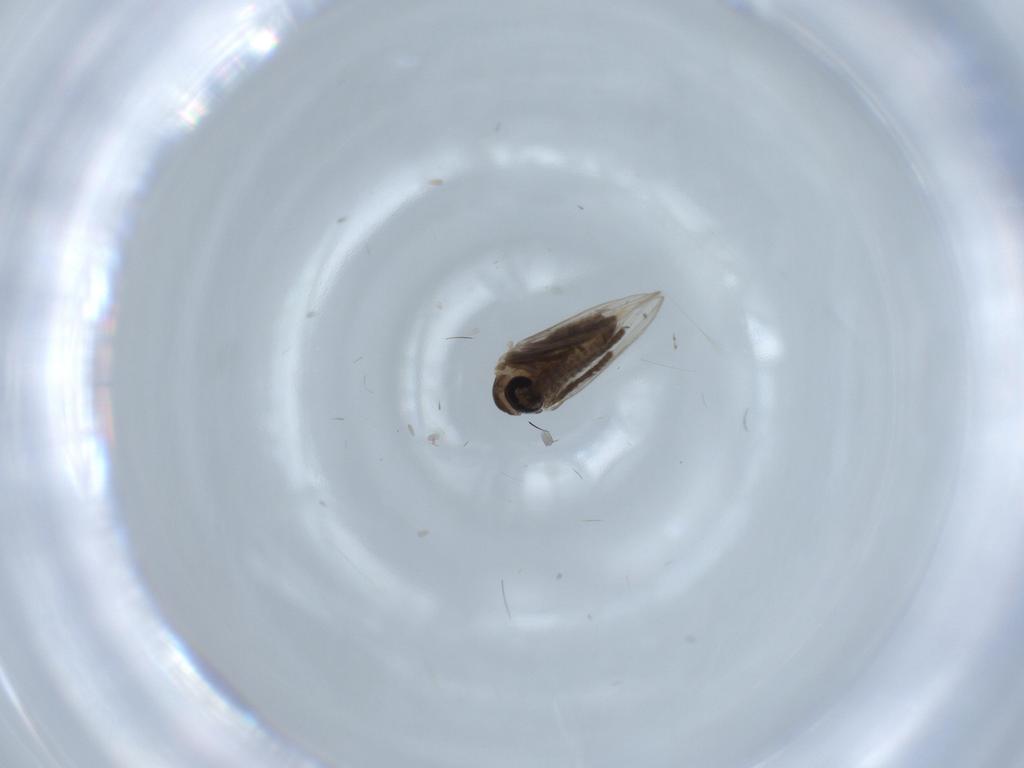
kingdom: Animalia
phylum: Arthropoda
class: Insecta
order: Diptera
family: Psychodidae
